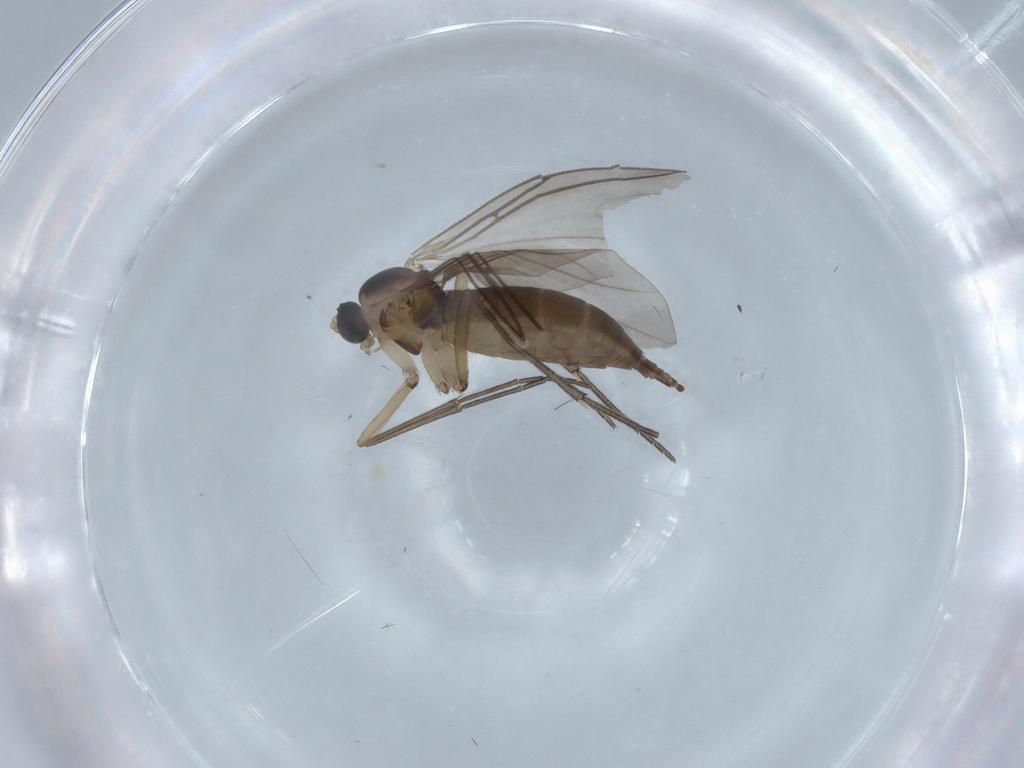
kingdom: Animalia
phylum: Arthropoda
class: Insecta
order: Diptera
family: Sciaridae
